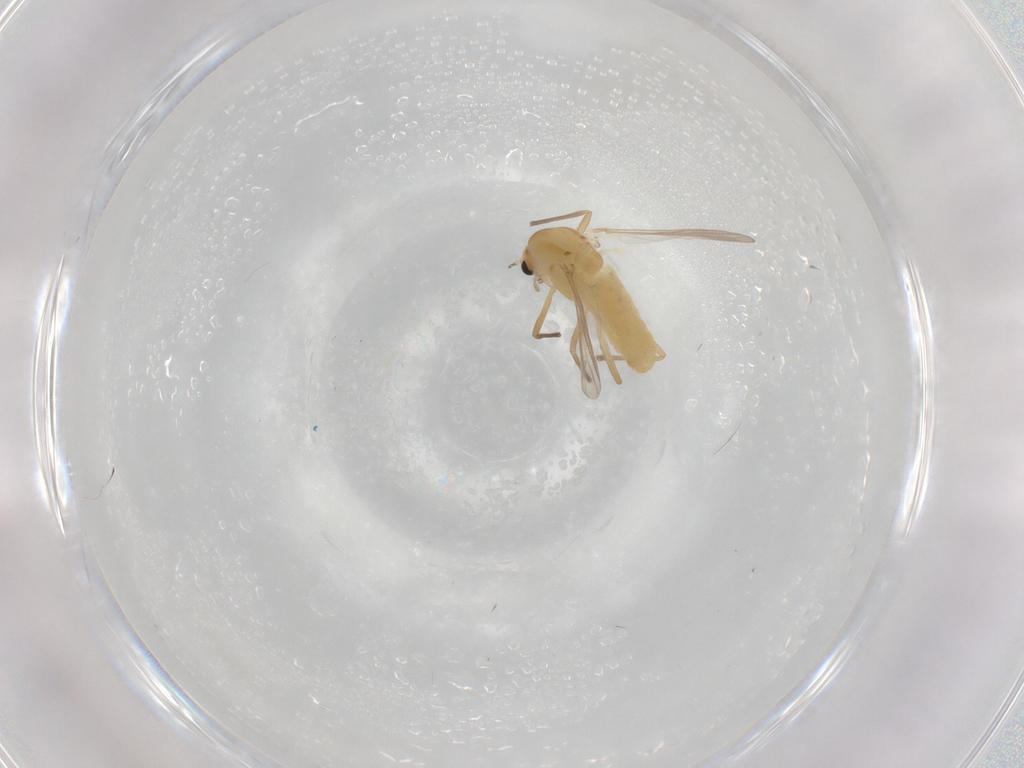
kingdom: Animalia
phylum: Arthropoda
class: Insecta
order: Diptera
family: Chironomidae
